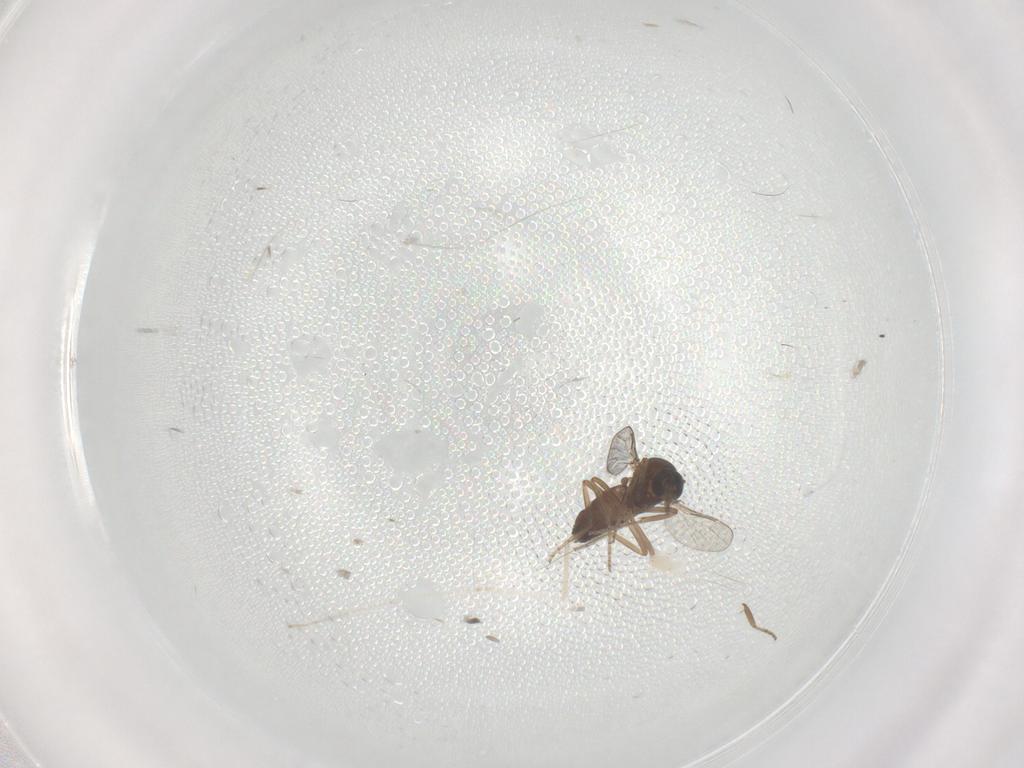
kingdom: Animalia
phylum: Arthropoda
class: Insecta
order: Diptera
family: Ceratopogonidae
